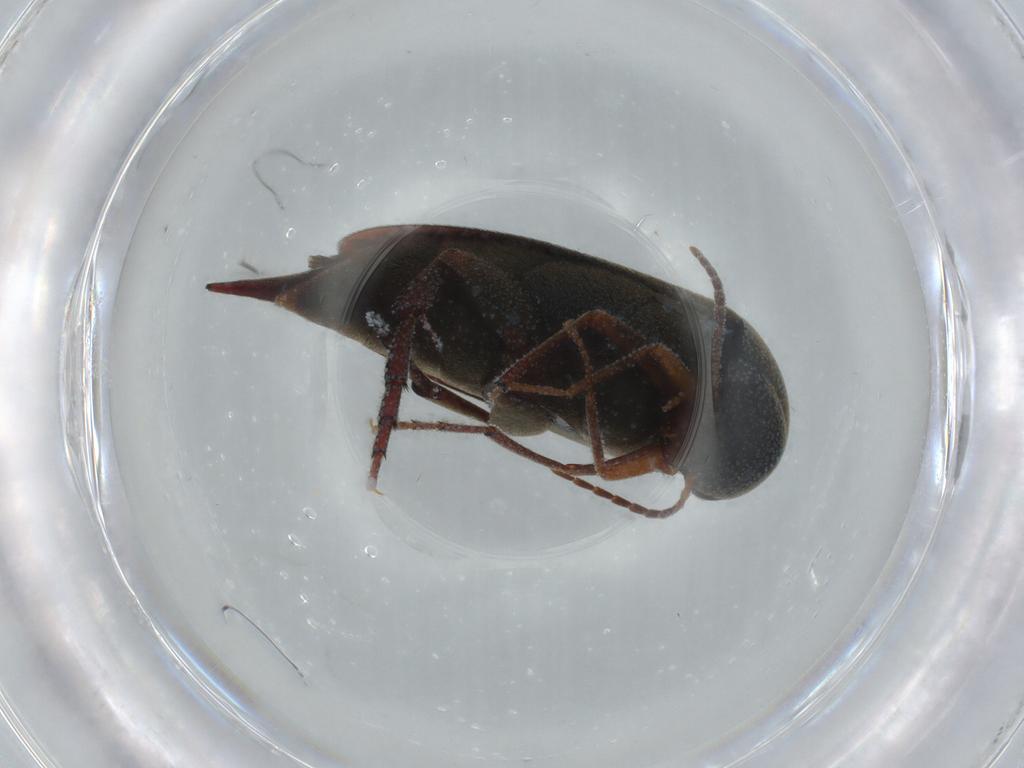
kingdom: Animalia
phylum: Arthropoda
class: Insecta
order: Coleoptera
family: Mordellidae
